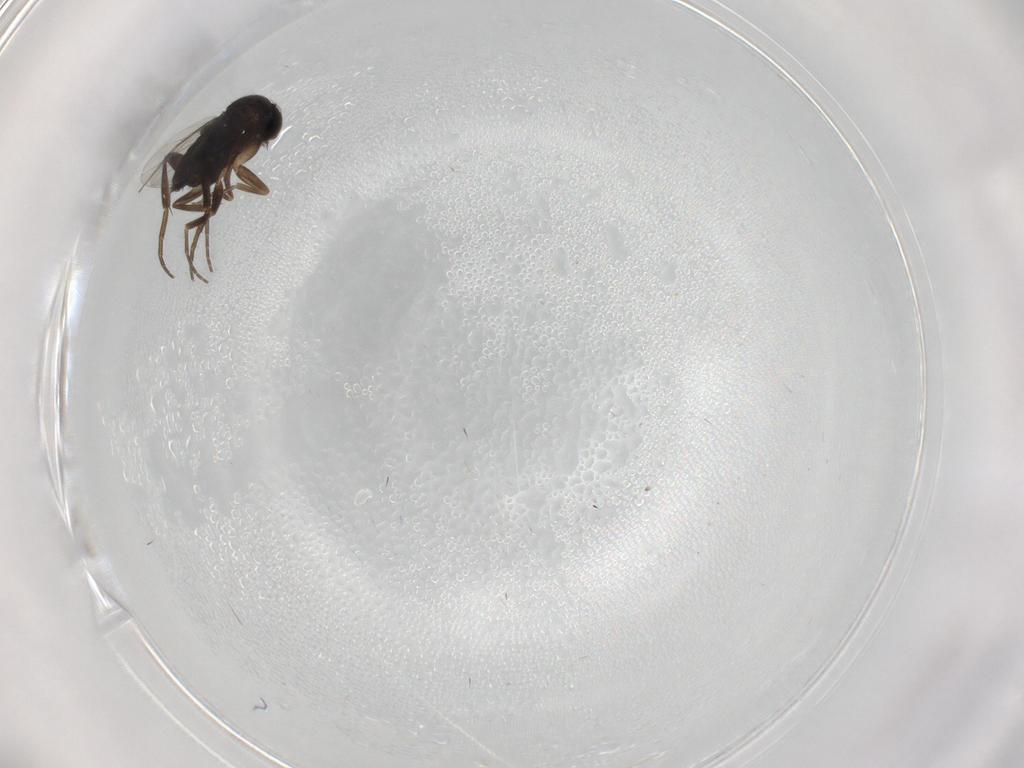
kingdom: Animalia
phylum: Arthropoda
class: Insecta
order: Diptera
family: Phoridae
